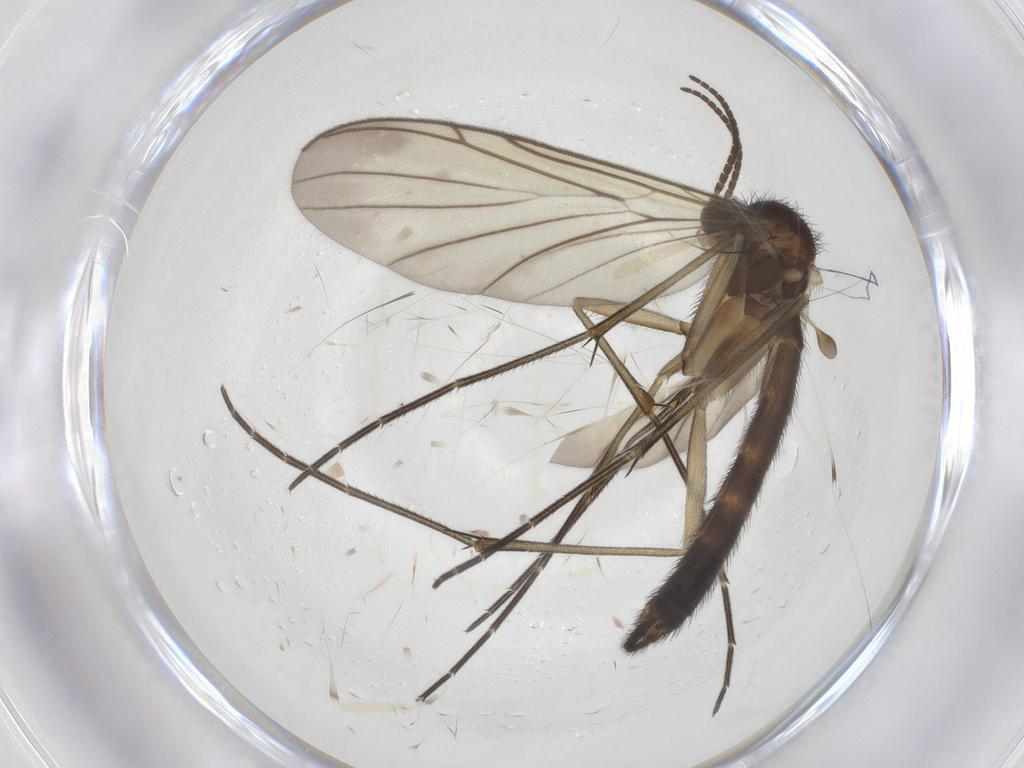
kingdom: Animalia
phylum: Arthropoda
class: Insecta
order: Diptera
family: Keroplatidae
